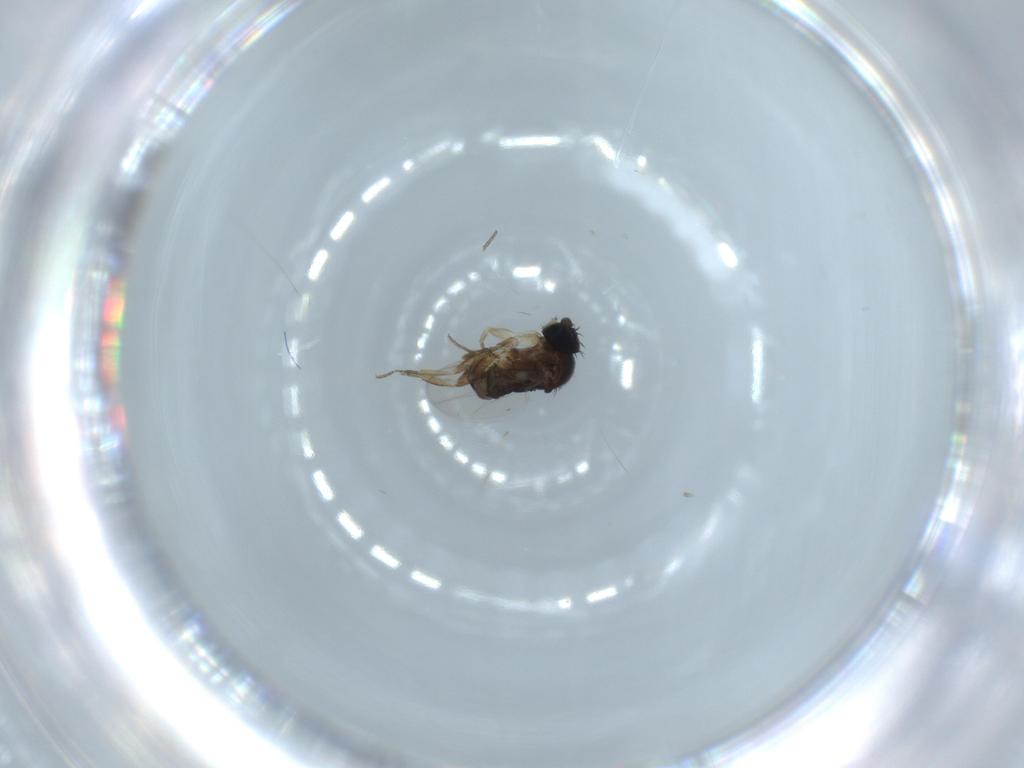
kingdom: Animalia
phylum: Arthropoda
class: Insecta
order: Diptera
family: Phoridae
